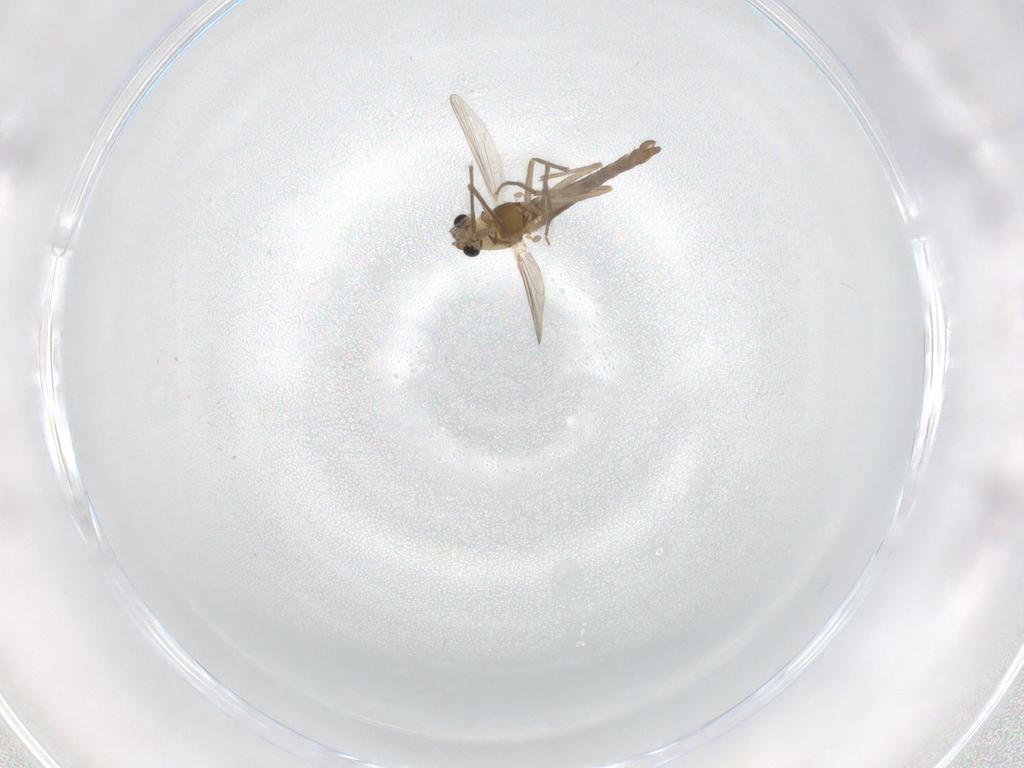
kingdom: Animalia
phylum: Arthropoda
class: Insecta
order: Diptera
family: Chironomidae
